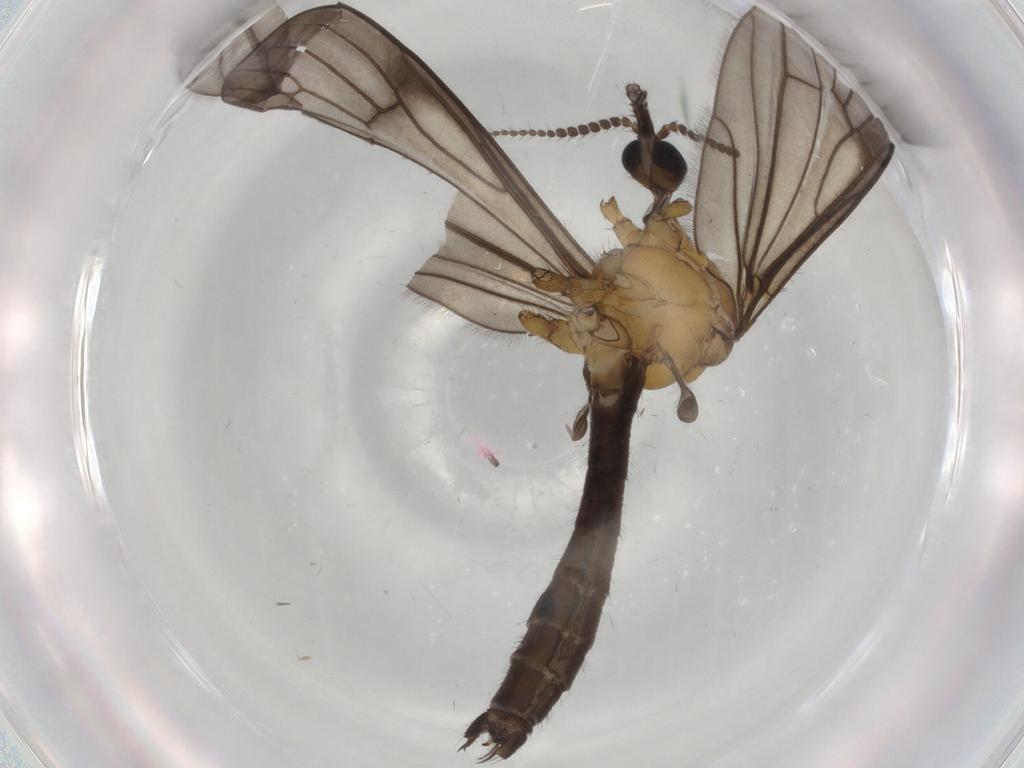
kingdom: Animalia
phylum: Arthropoda
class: Insecta
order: Diptera
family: Limoniidae
